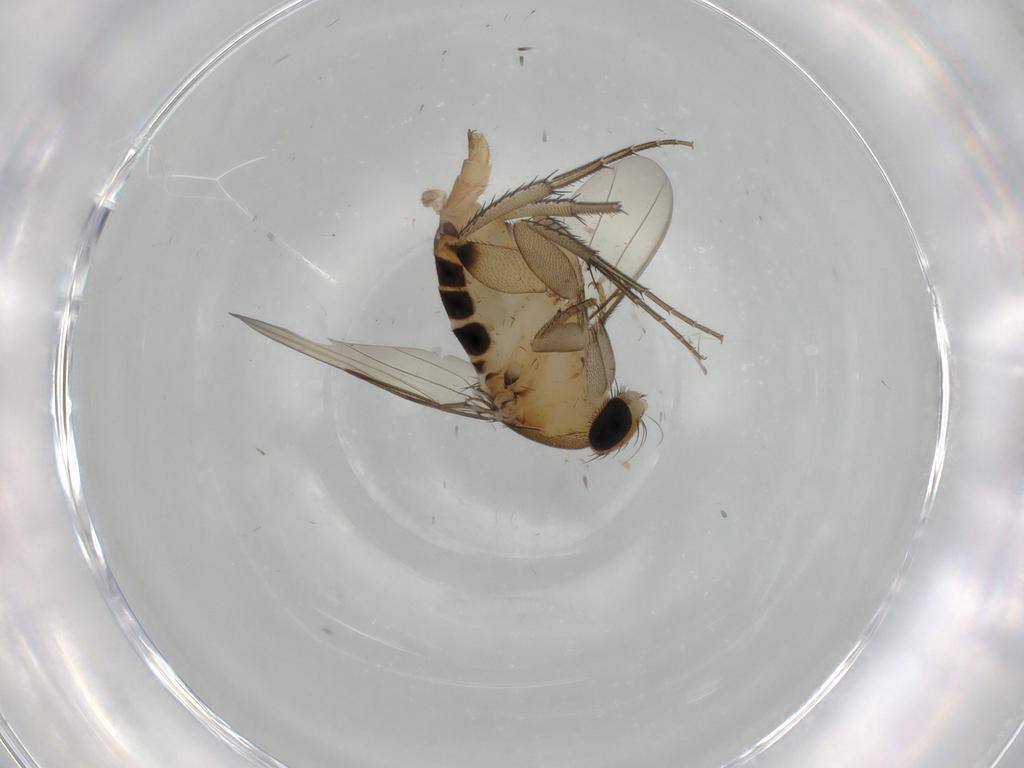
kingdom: Animalia
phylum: Arthropoda
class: Insecta
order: Diptera
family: Phoridae
